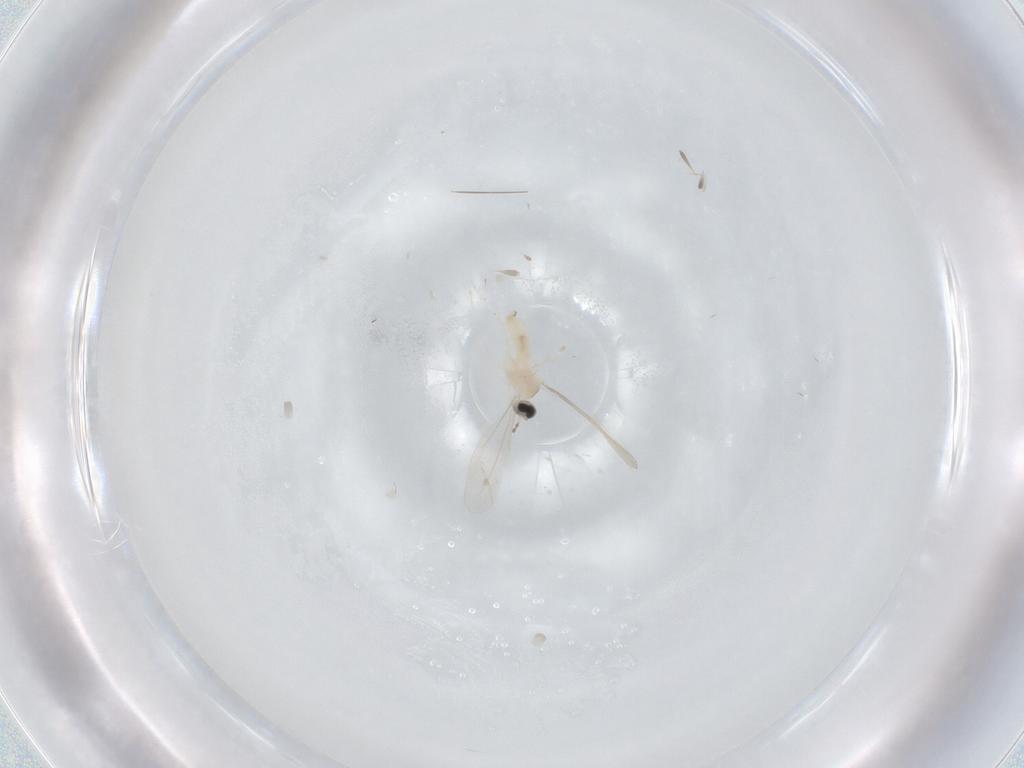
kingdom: Animalia
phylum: Arthropoda
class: Insecta
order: Diptera
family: Cecidomyiidae
